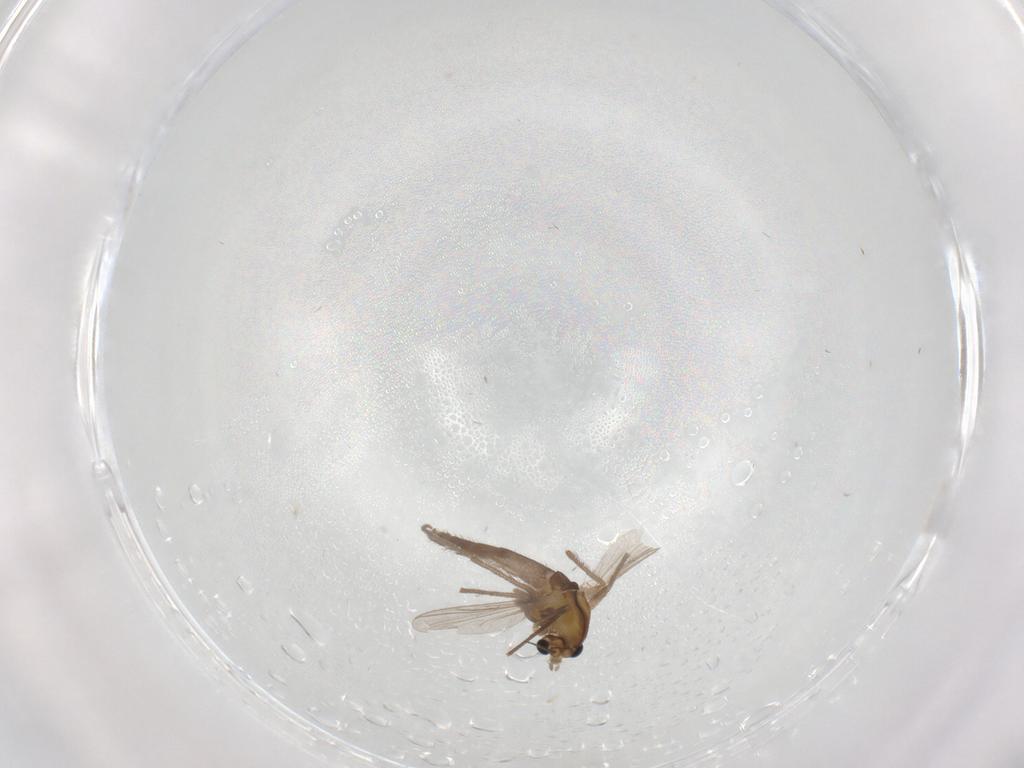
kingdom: Animalia
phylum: Arthropoda
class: Insecta
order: Diptera
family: Chironomidae
